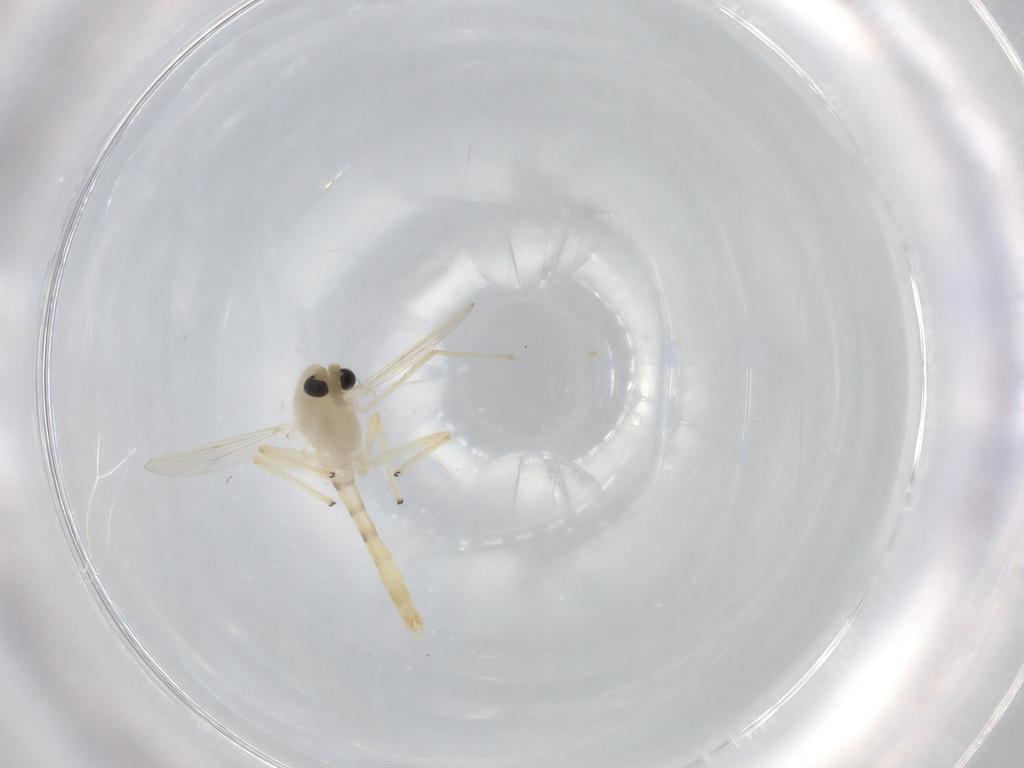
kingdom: Animalia
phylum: Arthropoda
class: Insecta
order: Diptera
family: Chironomidae
